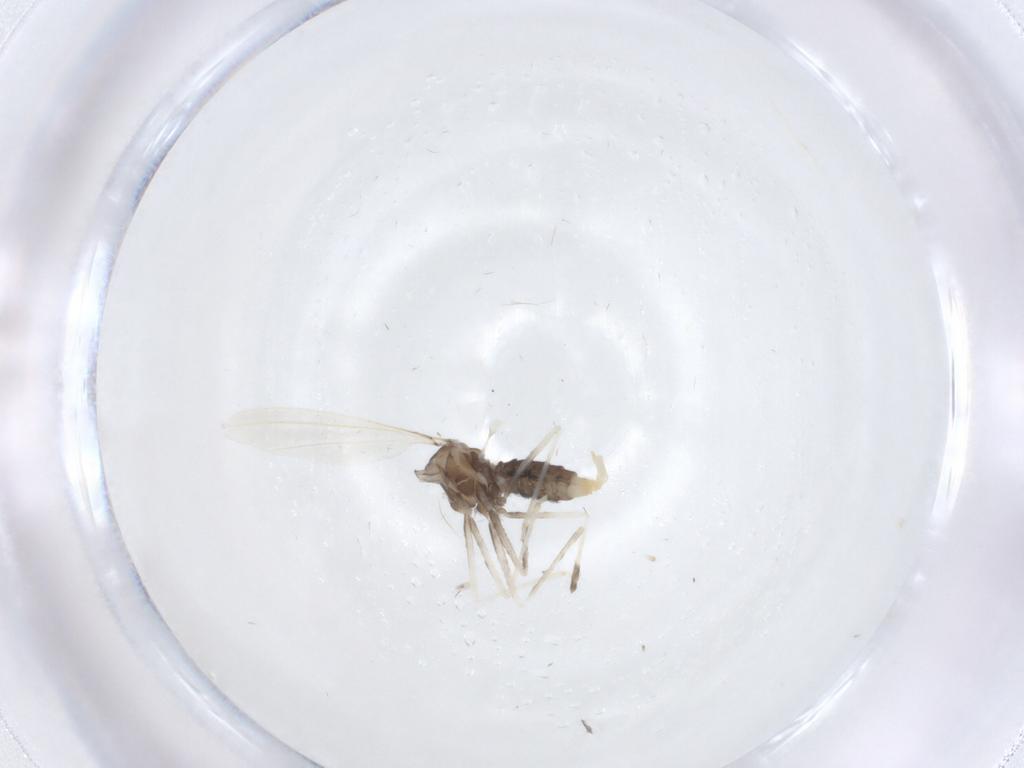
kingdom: Animalia
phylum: Arthropoda
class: Insecta
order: Diptera
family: Cecidomyiidae
